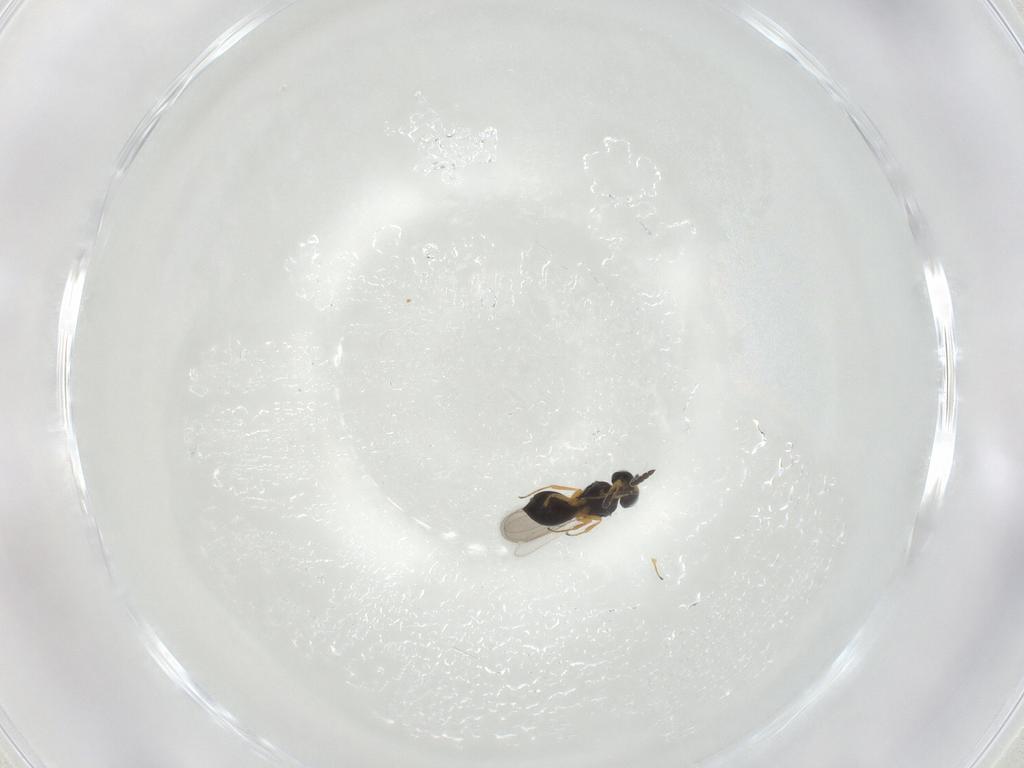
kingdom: Animalia
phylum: Arthropoda
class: Insecta
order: Hymenoptera
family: Scelionidae
